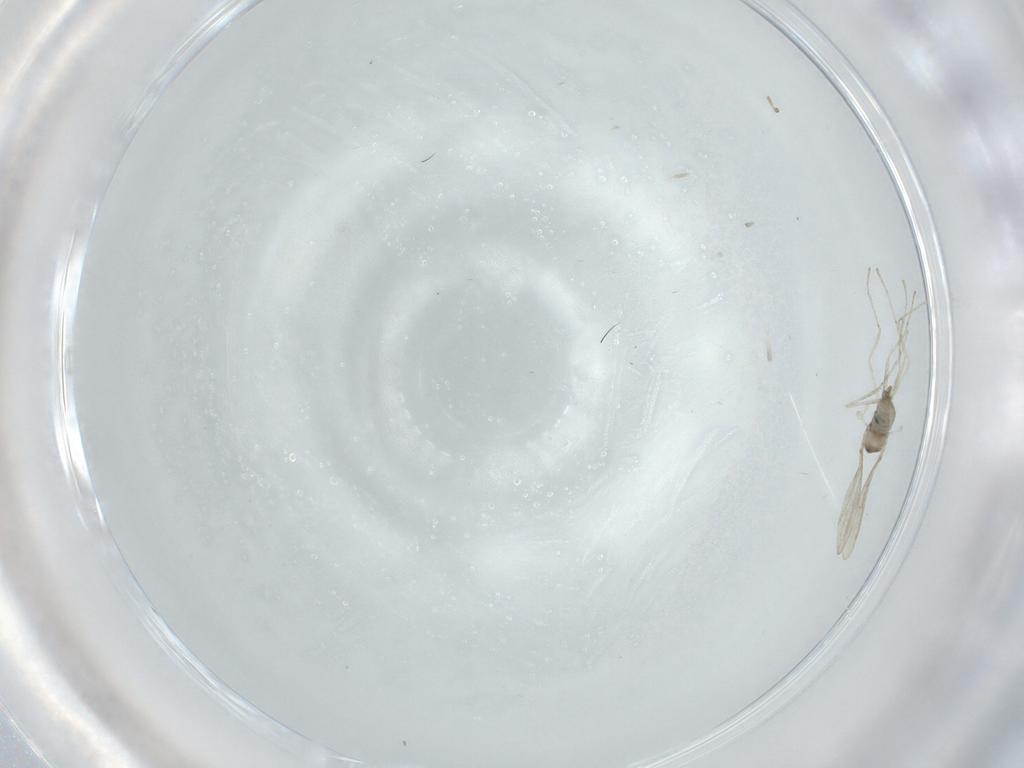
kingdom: Animalia
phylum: Arthropoda
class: Insecta
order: Diptera
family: Cecidomyiidae
